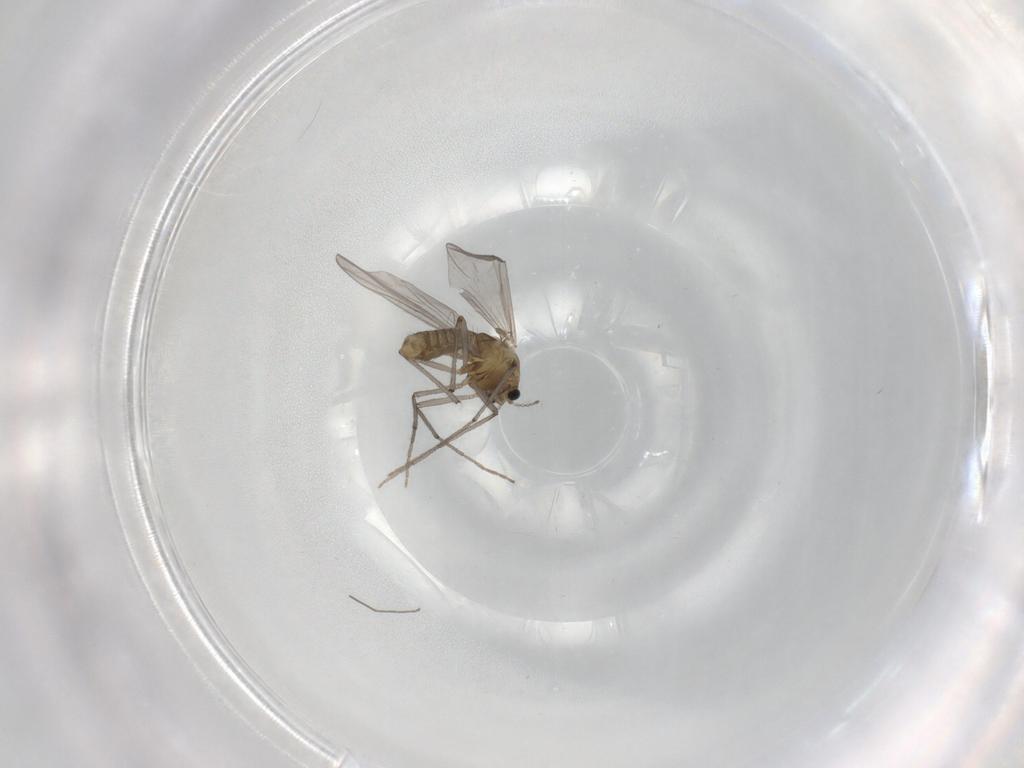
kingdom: Animalia
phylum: Arthropoda
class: Insecta
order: Diptera
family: Chironomidae
